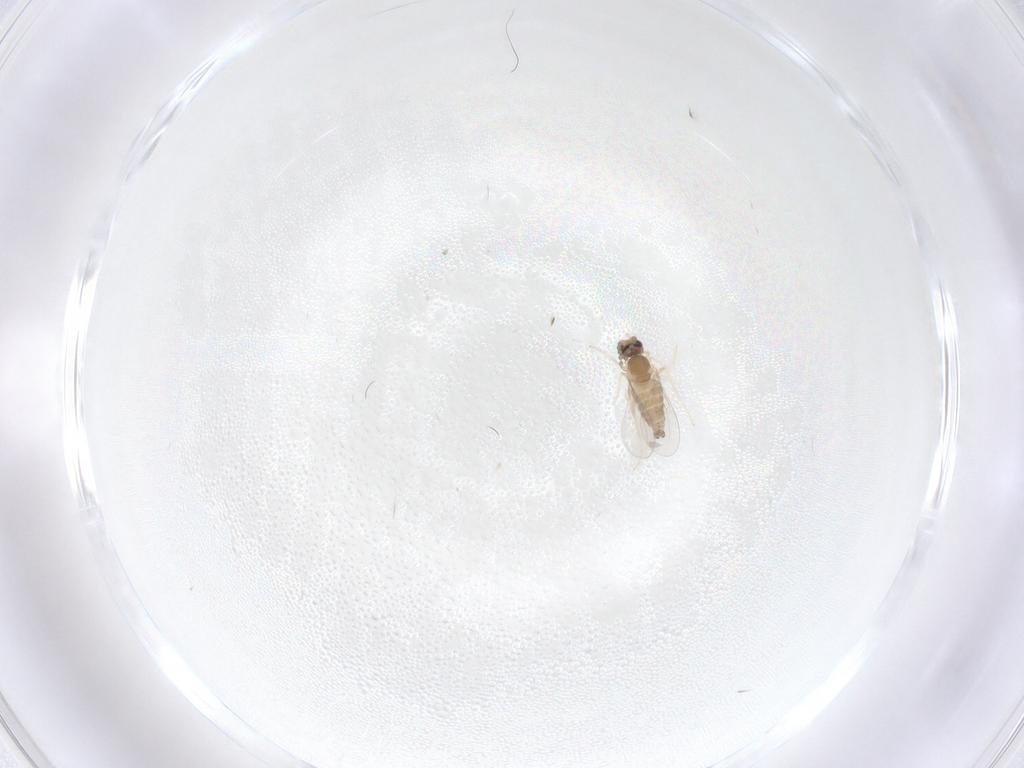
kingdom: Animalia
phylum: Arthropoda
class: Insecta
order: Diptera
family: Cecidomyiidae
